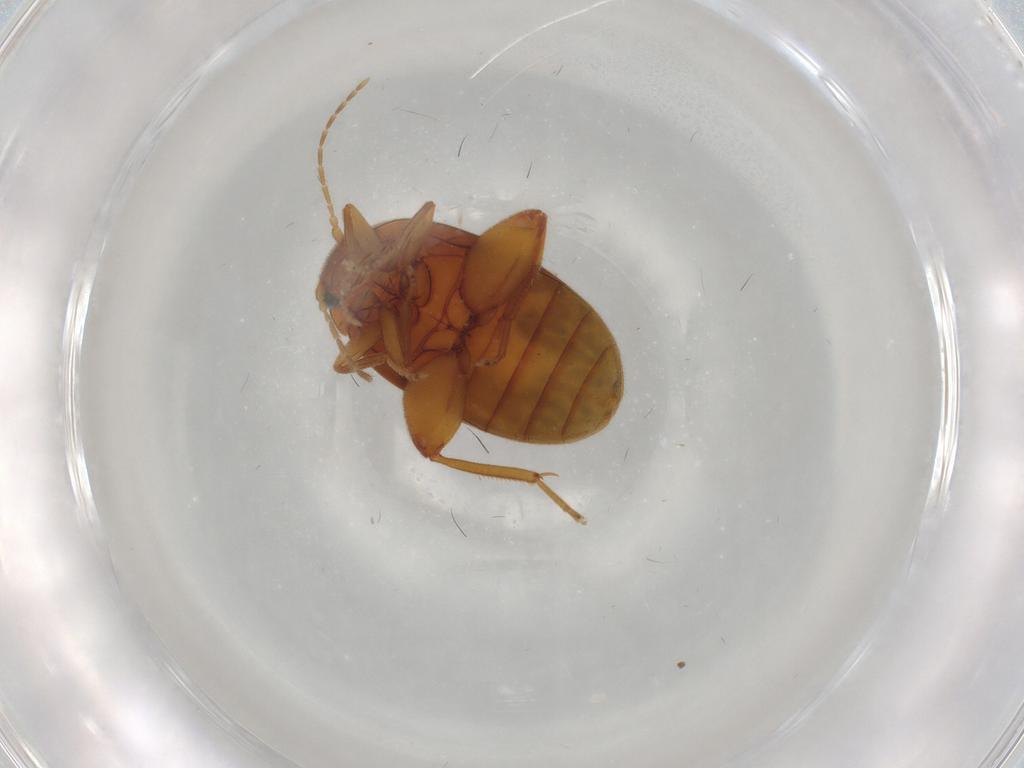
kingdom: Animalia
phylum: Arthropoda
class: Insecta
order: Coleoptera
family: Scirtidae
